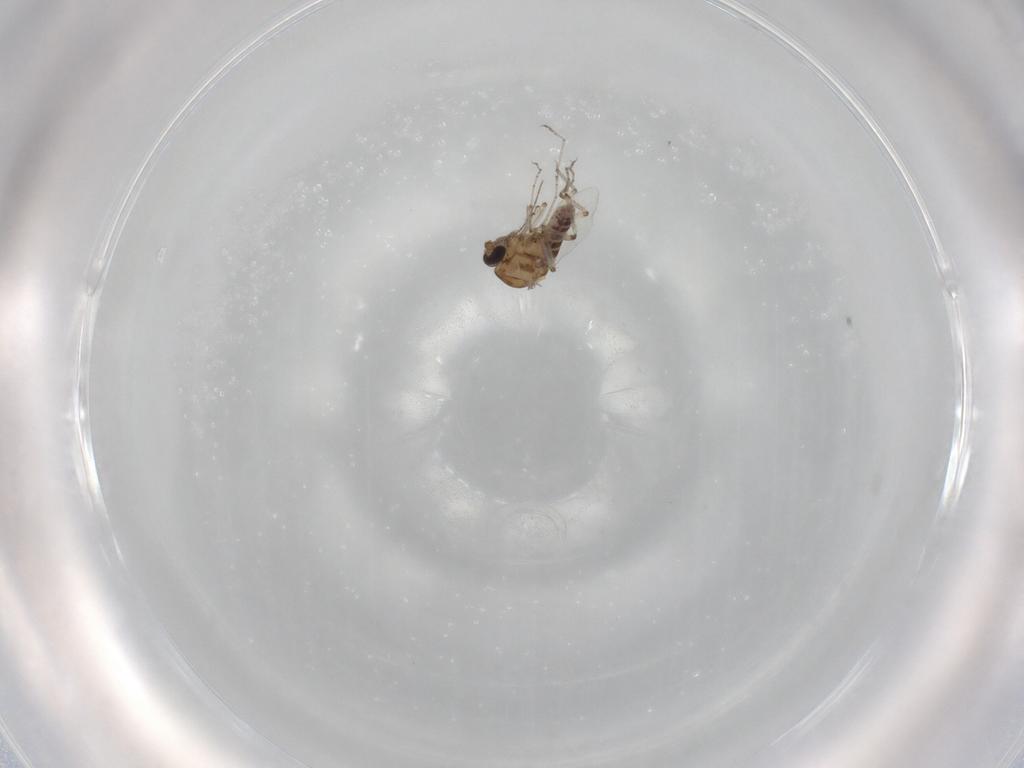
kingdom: Animalia
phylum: Arthropoda
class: Insecta
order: Diptera
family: Ceratopogonidae
